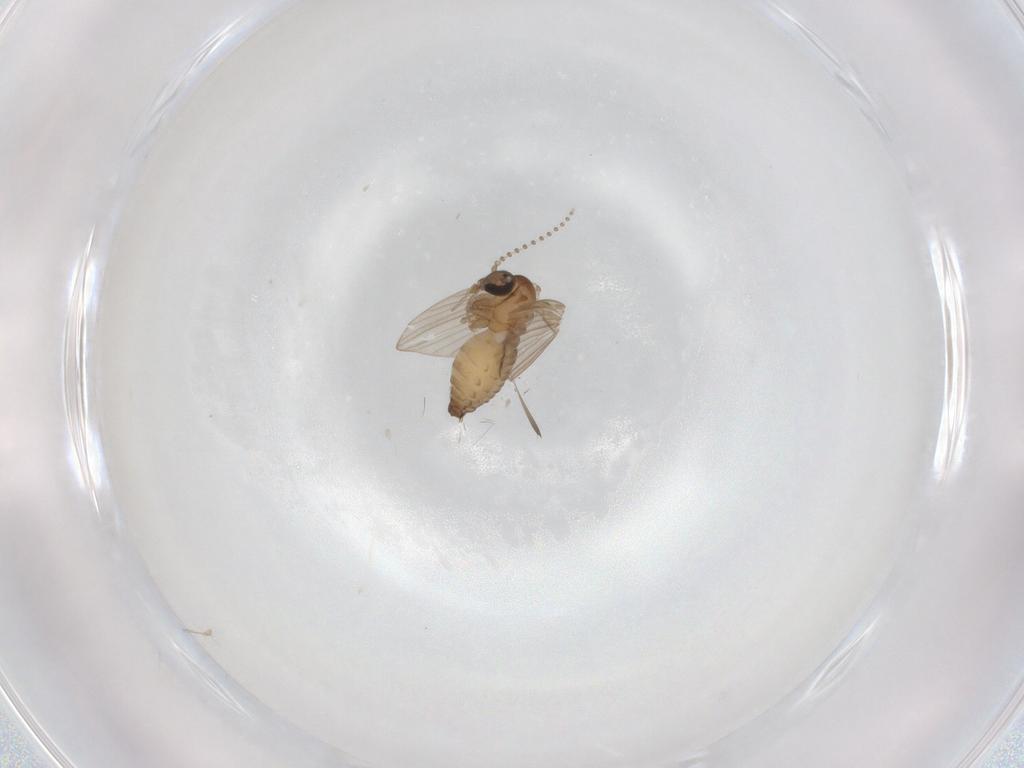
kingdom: Animalia
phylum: Arthropoda
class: Insecta
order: Diptera
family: Psychodidae
